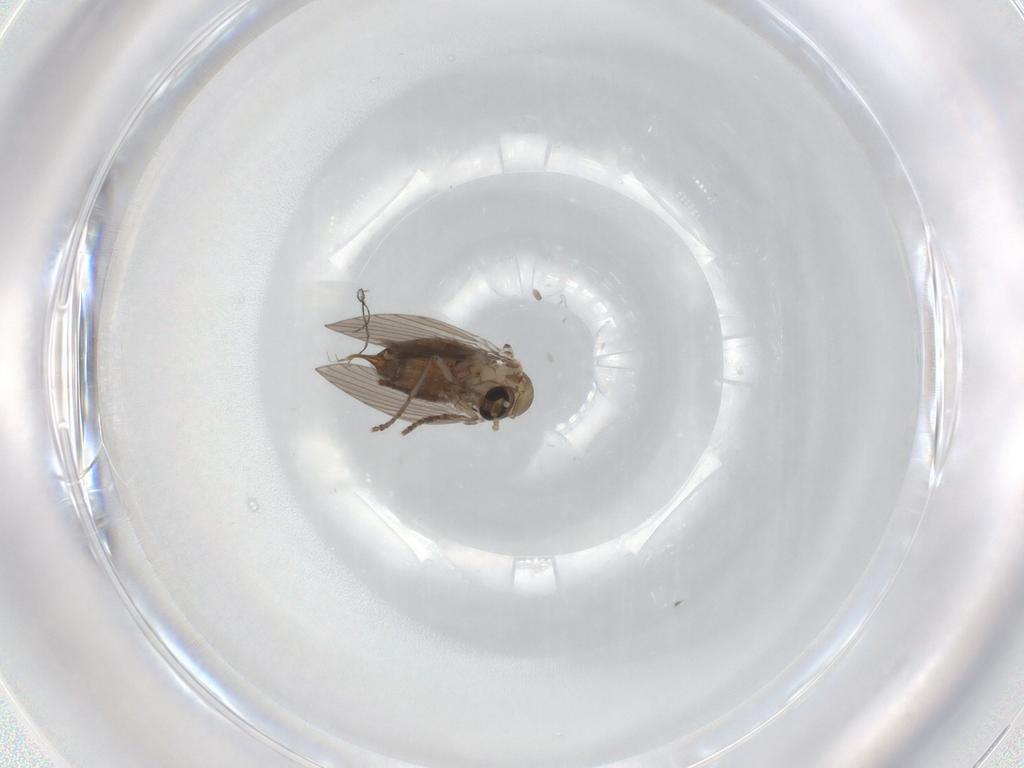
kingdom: Animalia
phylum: Arthropoda
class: Insecta
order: Diptera
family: Psychodidae
